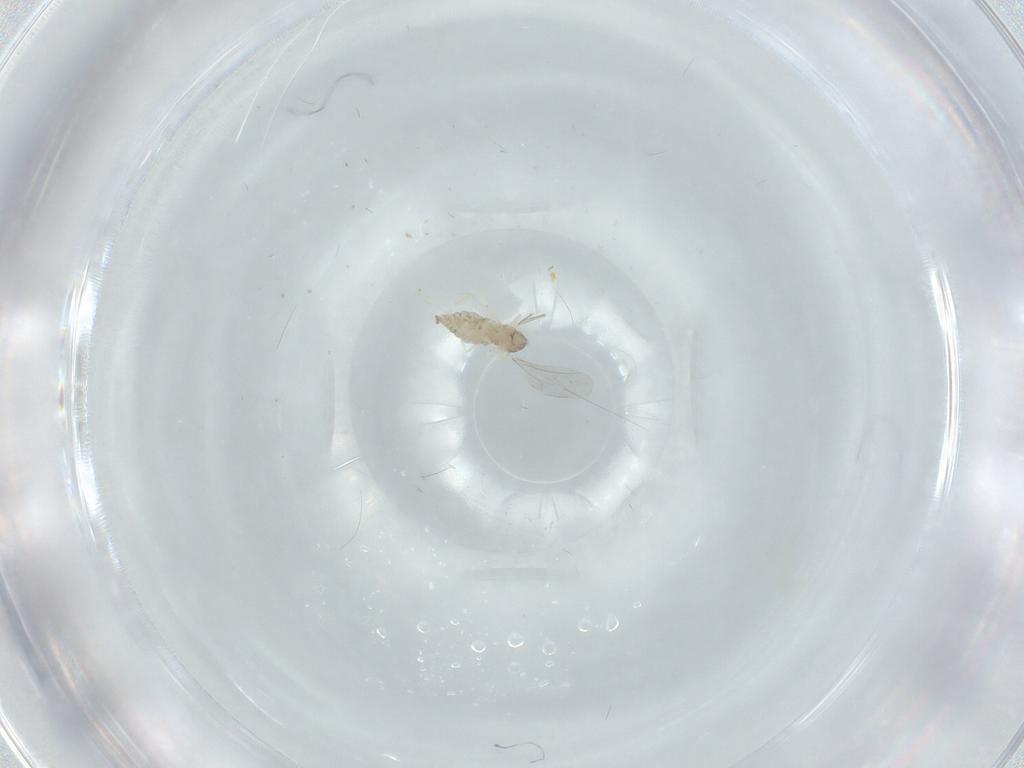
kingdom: Animalia
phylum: Arthropoda
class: Insecta
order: Diptera
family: Cecidomyiidae
